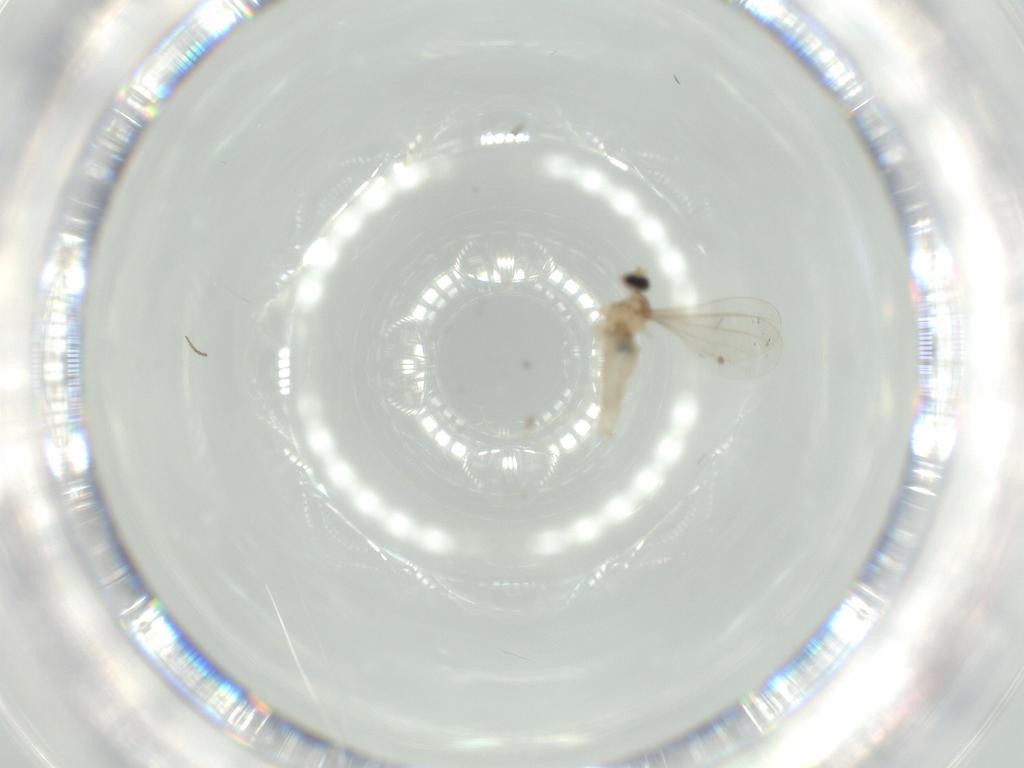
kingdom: Animalia
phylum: Arthropoda
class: Insecta
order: Diptera
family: Cecidomyiidae
